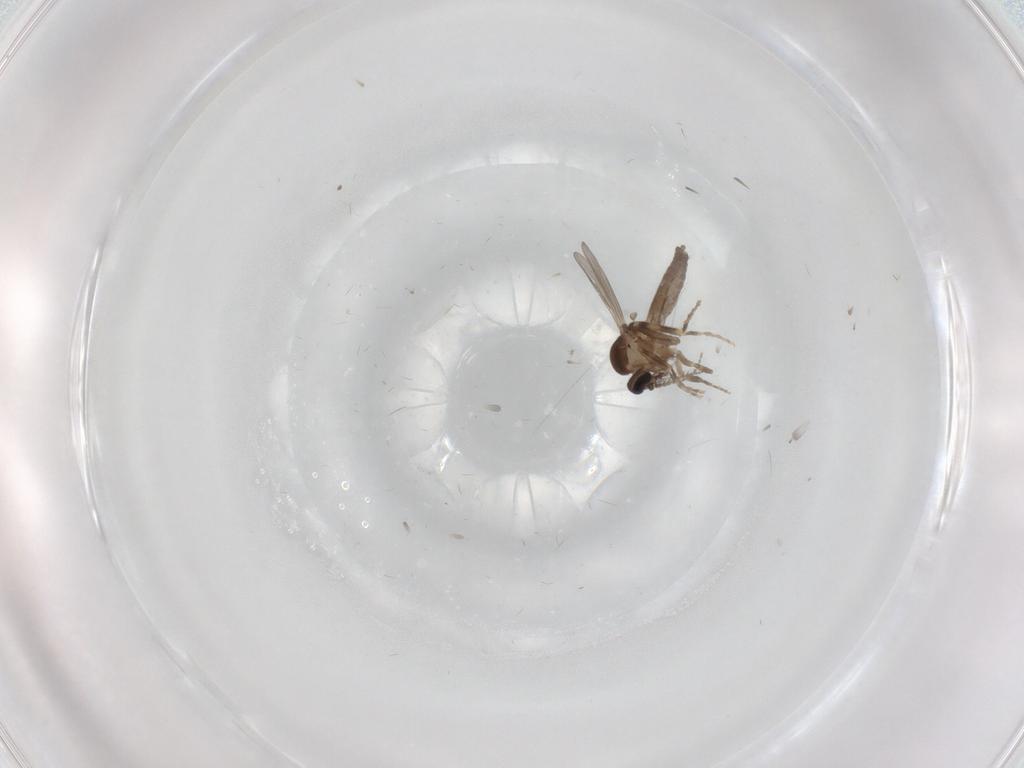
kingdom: Animalia
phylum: Arthropoda
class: Insecta
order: Diptera
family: Ceratopogonidae
